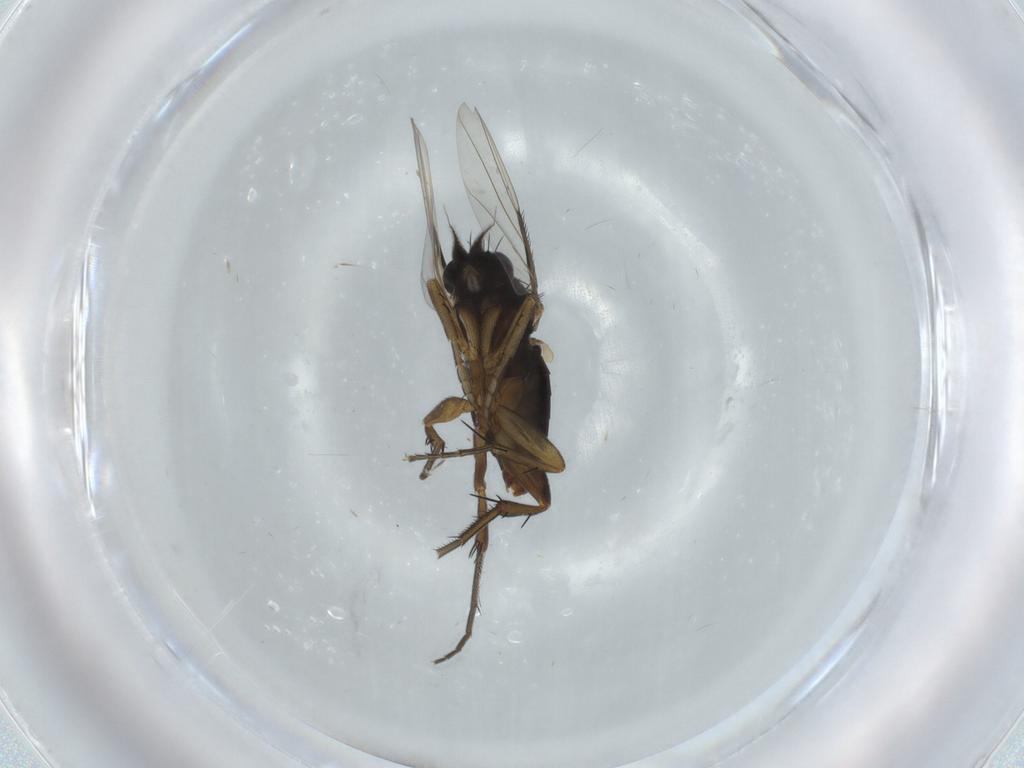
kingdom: Animalia
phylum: Arthropoda
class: Insecta
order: Diptera
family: Phoridae
